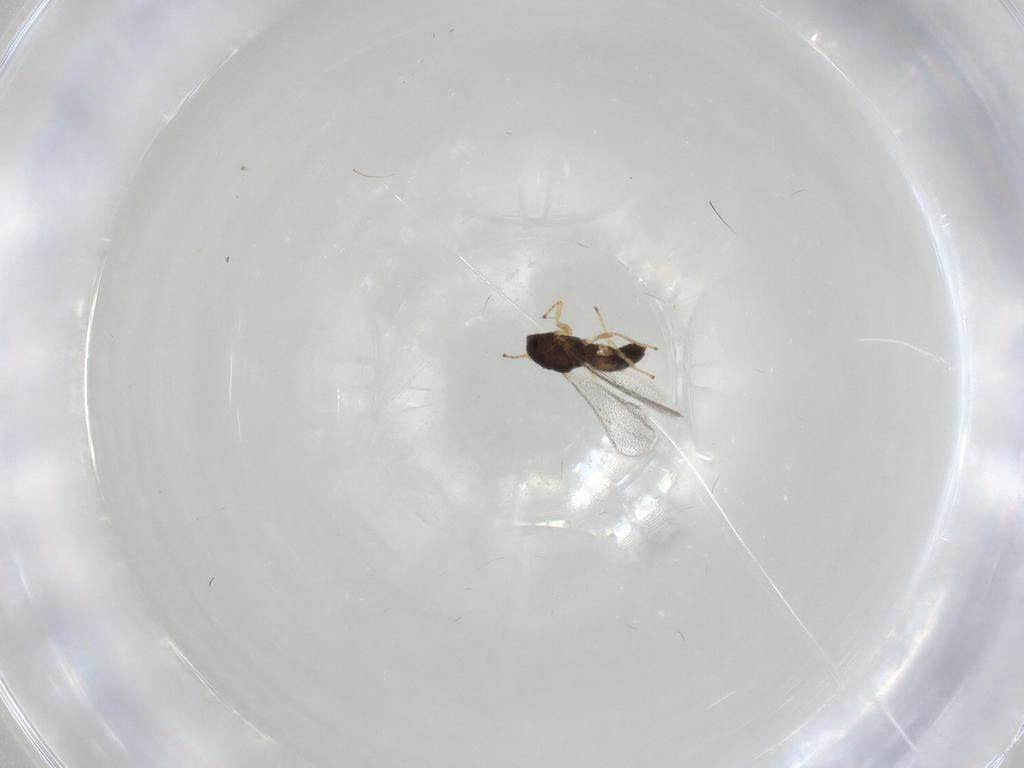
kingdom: Animalia
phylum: Arthropoda
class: Insecta
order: Hymenoptera
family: Eulophidae
